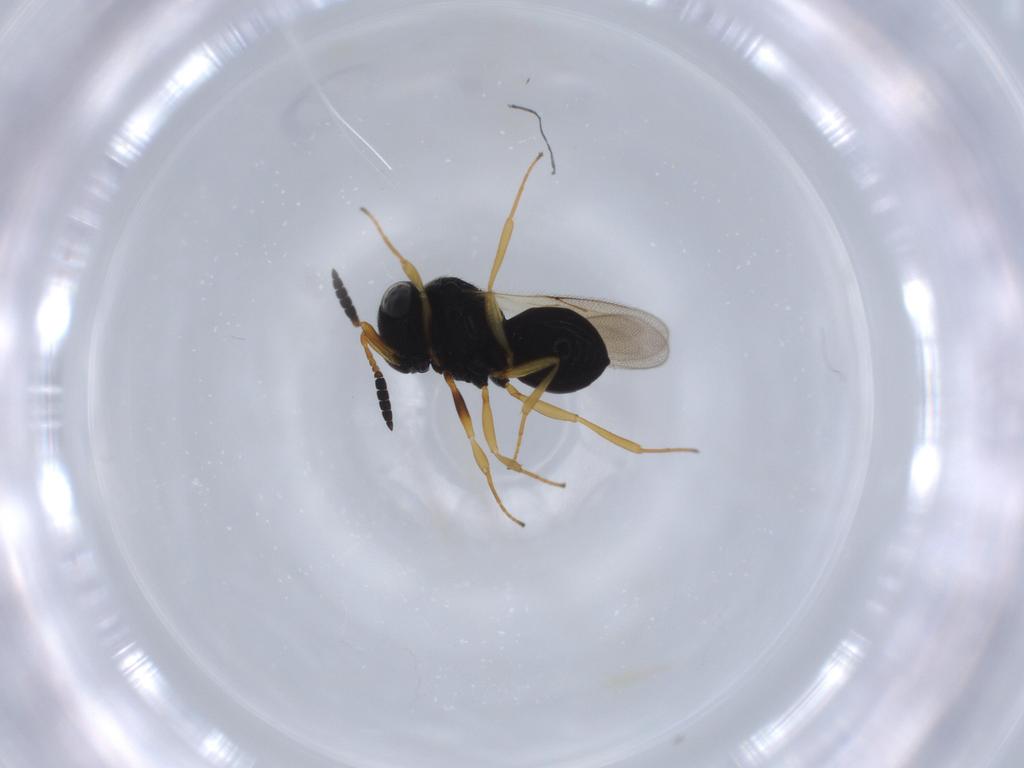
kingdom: Animalia
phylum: Arthropoda
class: Insecta
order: Hymenoptera
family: Scelionidae
